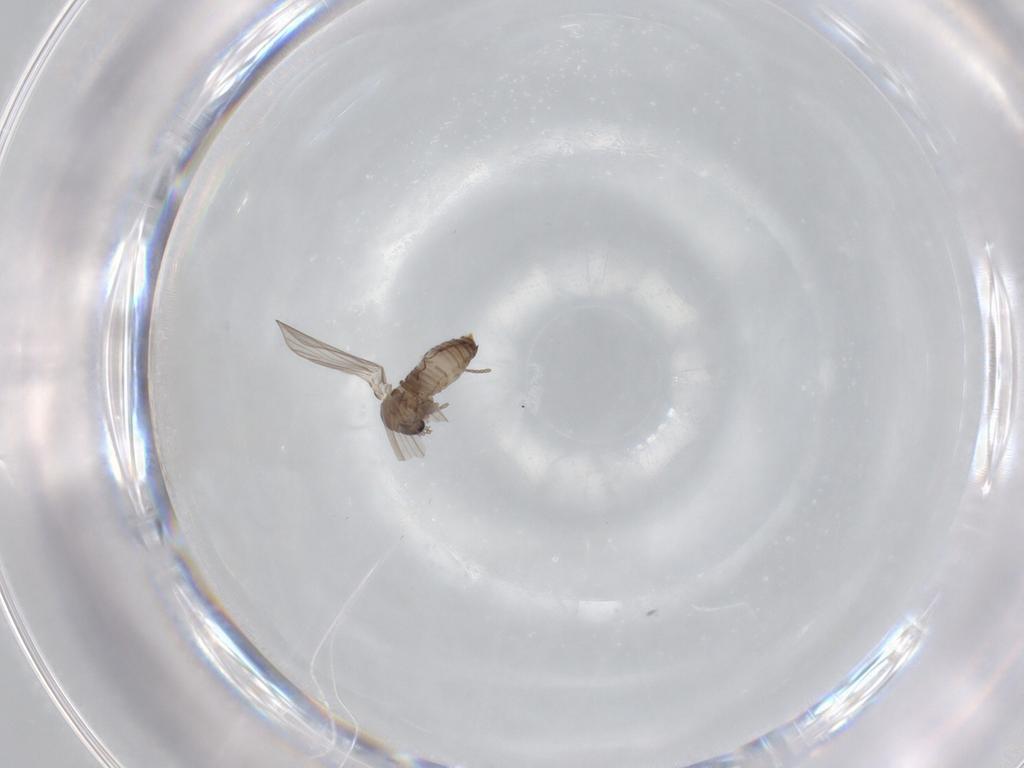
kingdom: Animalia
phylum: Arthropoda
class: Insecta
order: Diptera
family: Psychodidae
